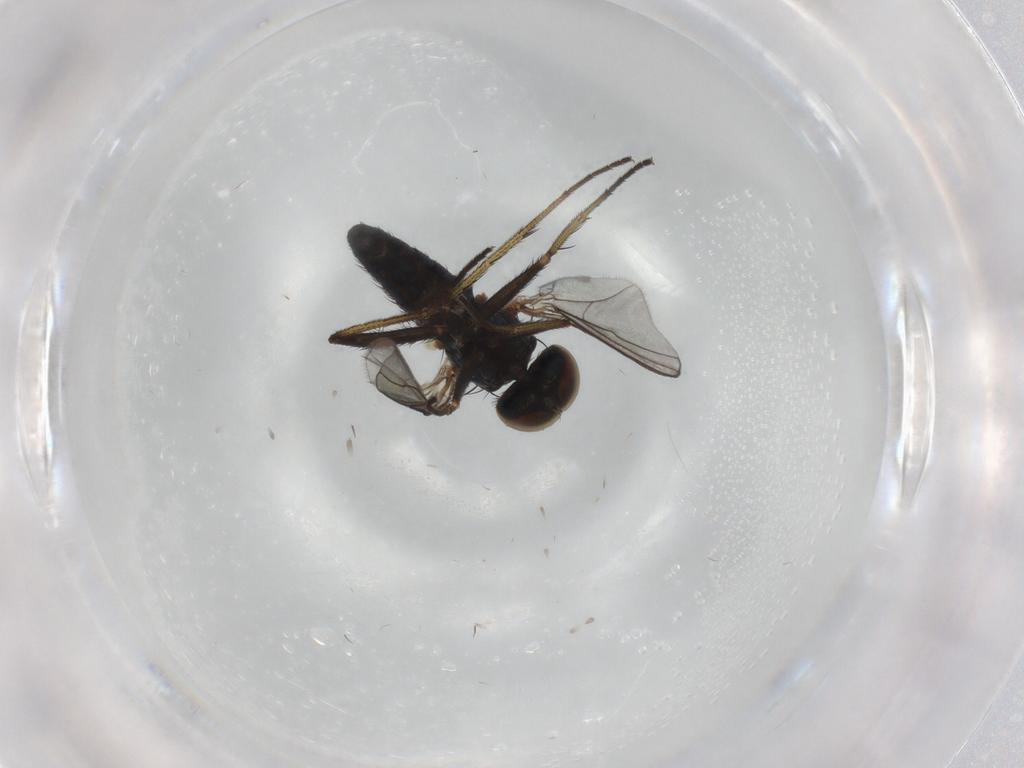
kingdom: Animalia
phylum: Arthropoda
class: Insecta
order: Diptera
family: Dolichopodidae
